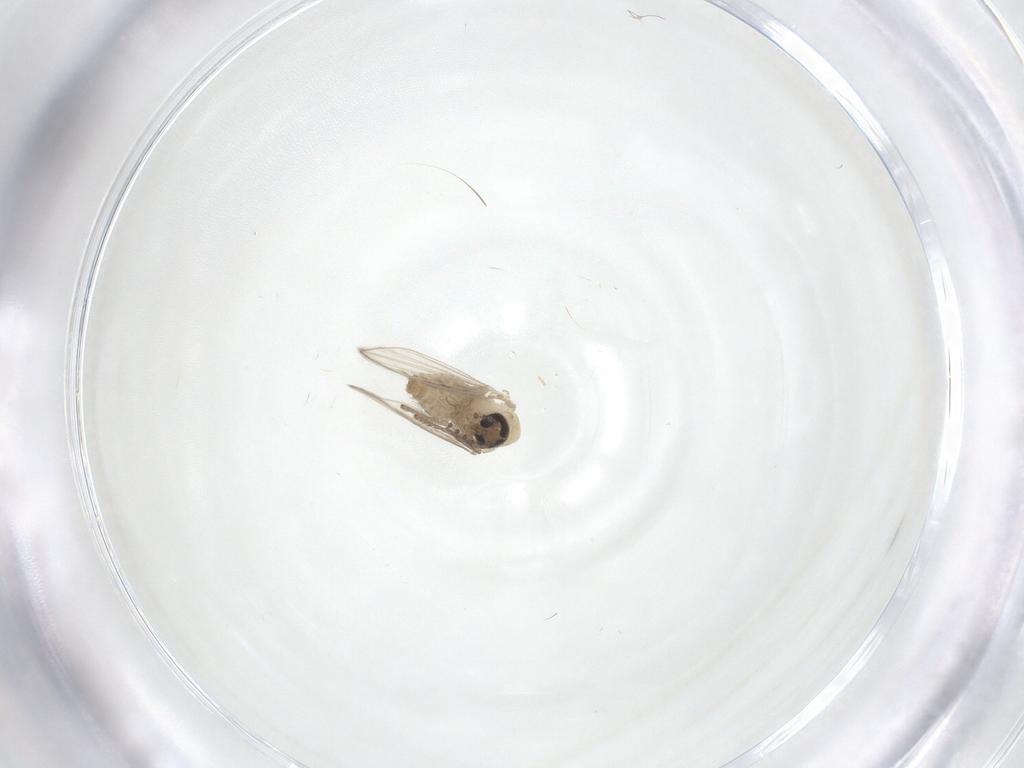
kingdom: Animalia
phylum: Arthropoda
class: Insecta
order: Diptera
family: Psychodidae
